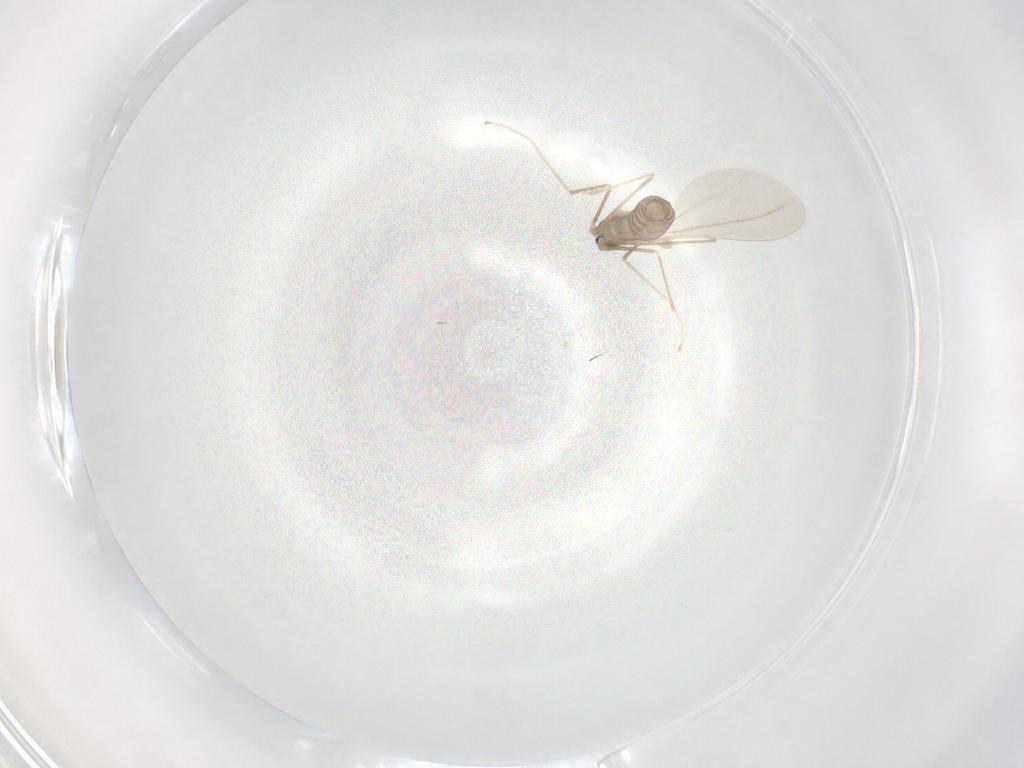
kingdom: Animalia
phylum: Arthropoda
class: Insecta
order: Diptera
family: Cecidomyiidae
